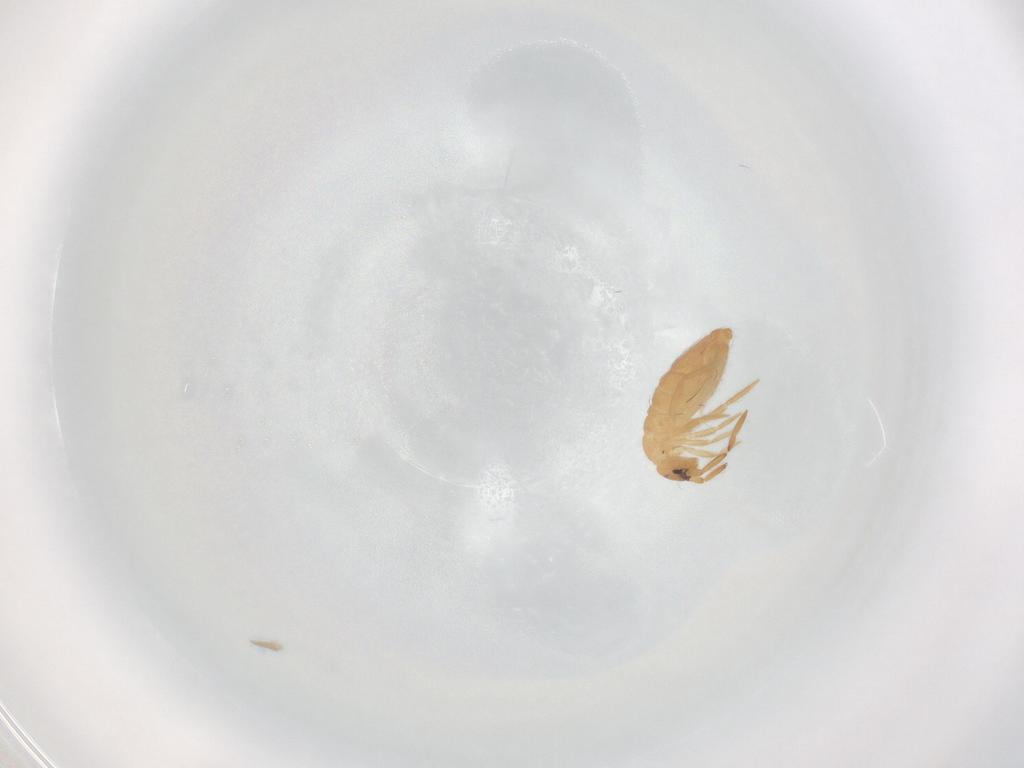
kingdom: Animalia
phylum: Arthropoda
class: Collembola
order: Entomobryomorpha
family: Entomobryidae
